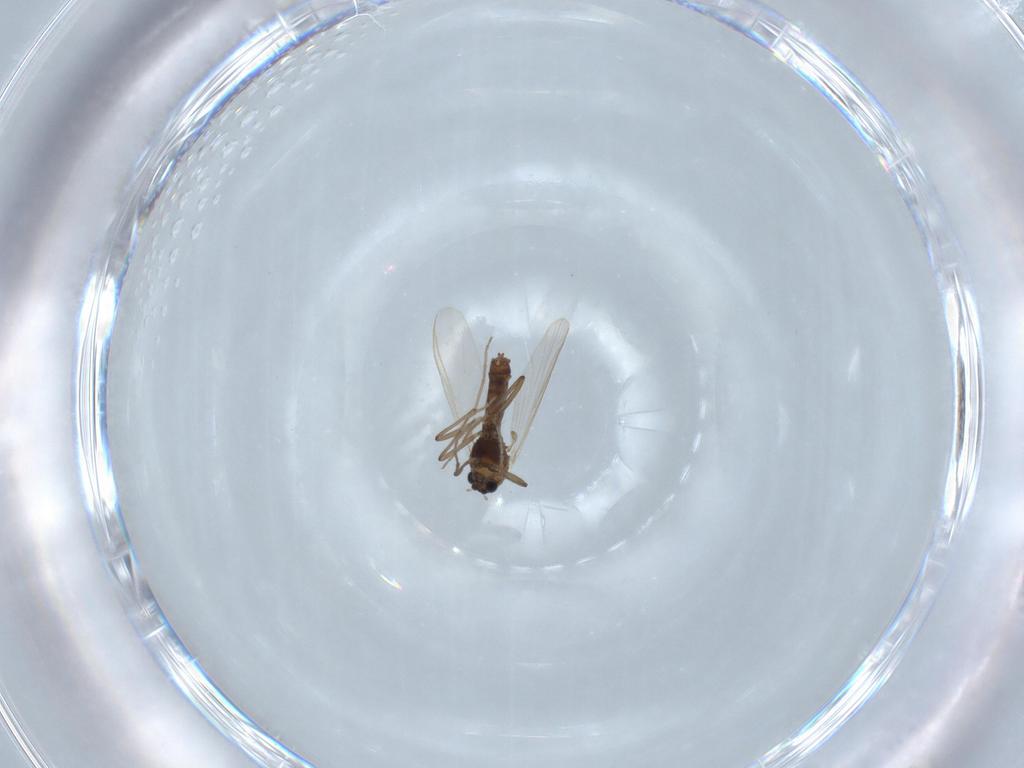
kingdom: Animalia
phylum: Arthropoda
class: Insecta
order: Diptera
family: Chironomidae
